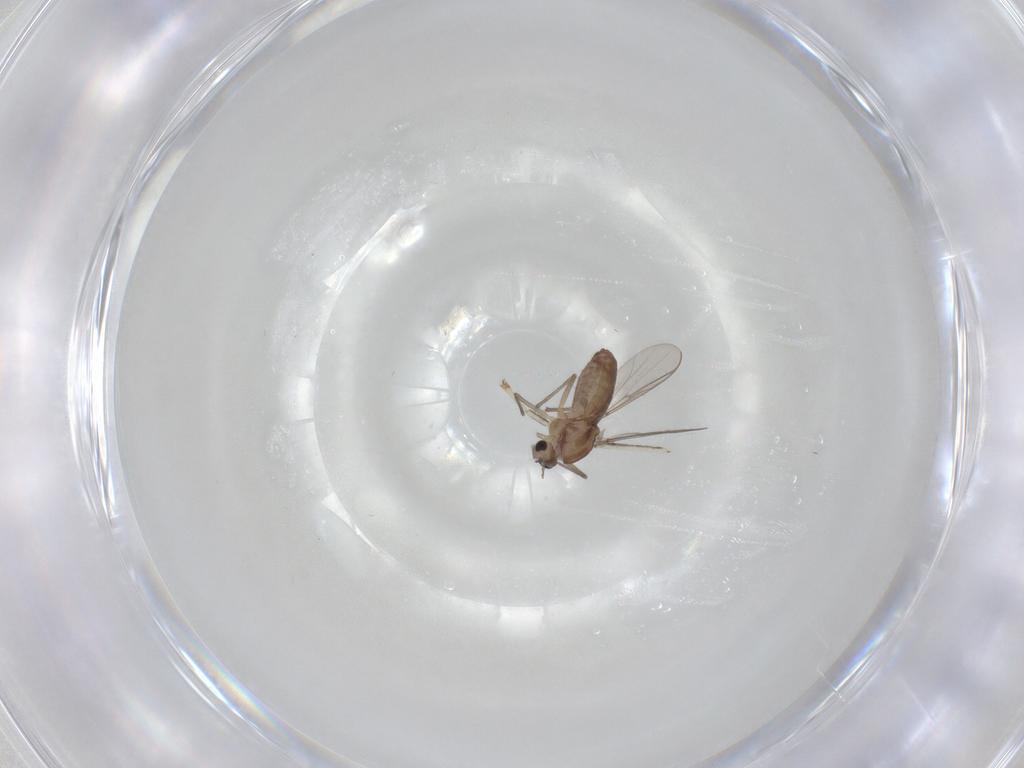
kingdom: Animalia
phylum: Arthropoda
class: Insecta
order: Diptera
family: Chironomidae
